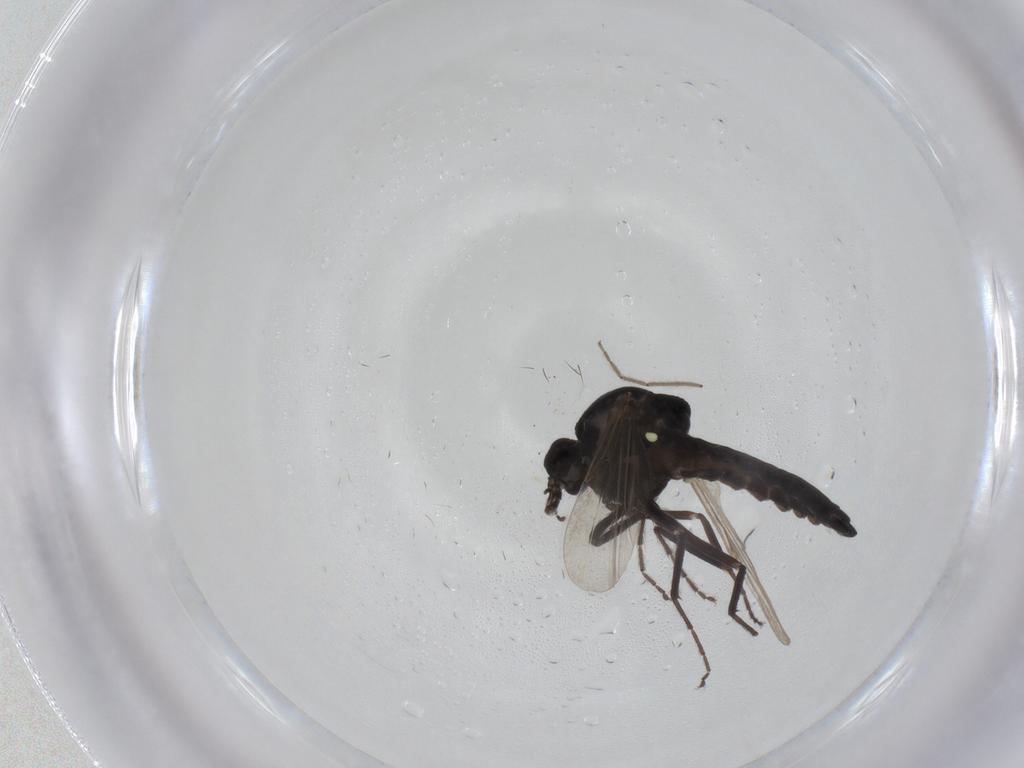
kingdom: Animalia
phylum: Arthropoda
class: Insecta
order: Diptera
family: Chironomidae
